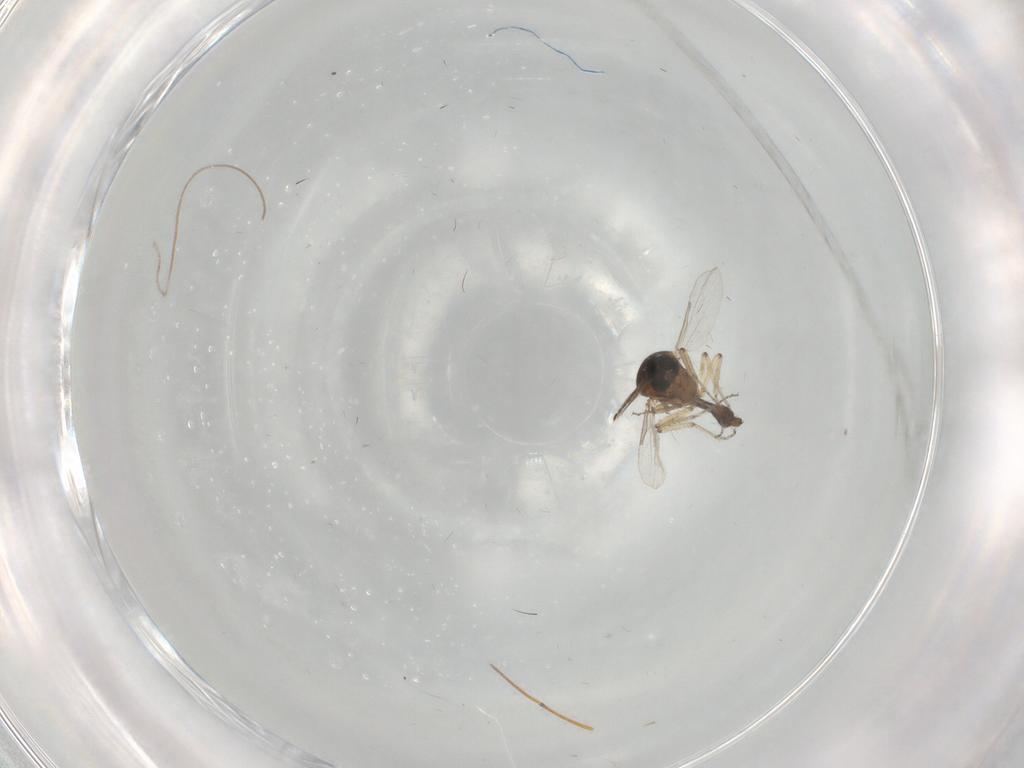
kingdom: Animalia
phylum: Arthropoda
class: Insecta
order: Diptera
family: Ceratopogonidae
